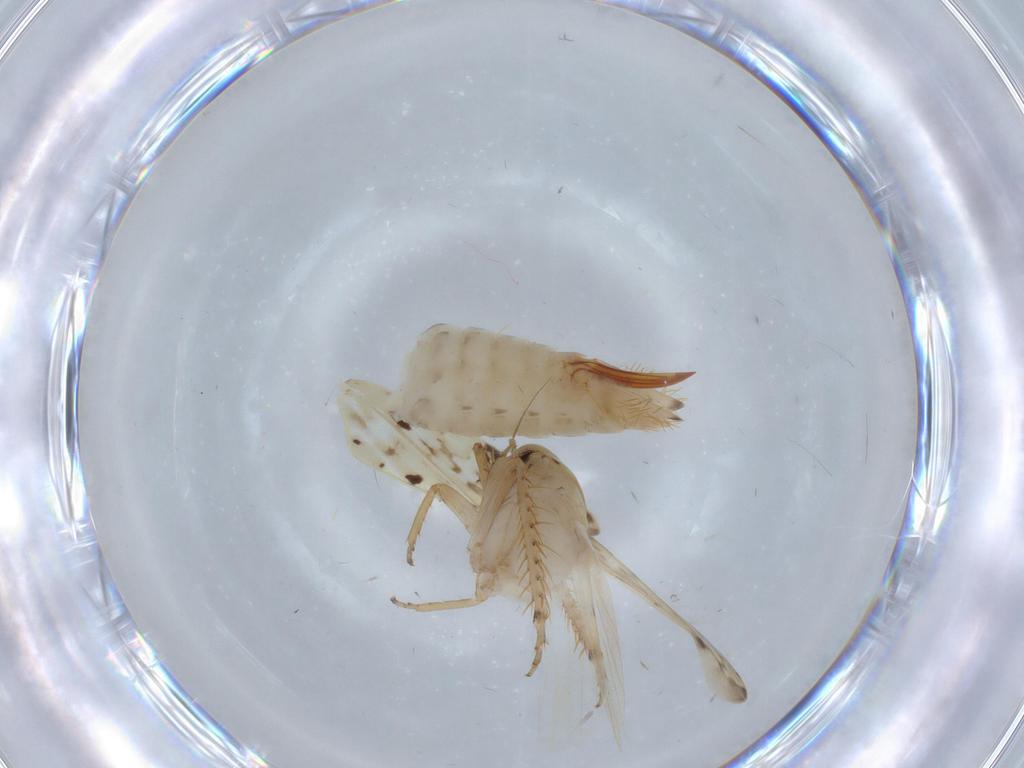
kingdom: Animalia
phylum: Arthropoda
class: Insecta
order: Hemiptera
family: Cicadellidae
